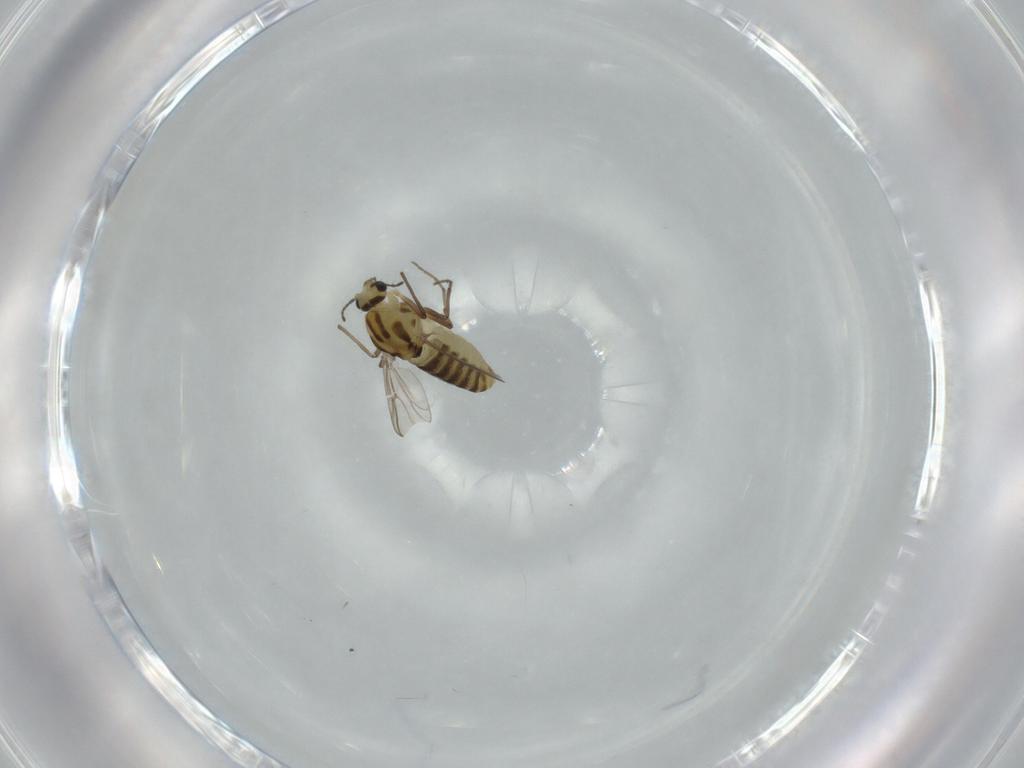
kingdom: Animalia
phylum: Arthropoda
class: Insecta
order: Diptera
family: Chironomidae
